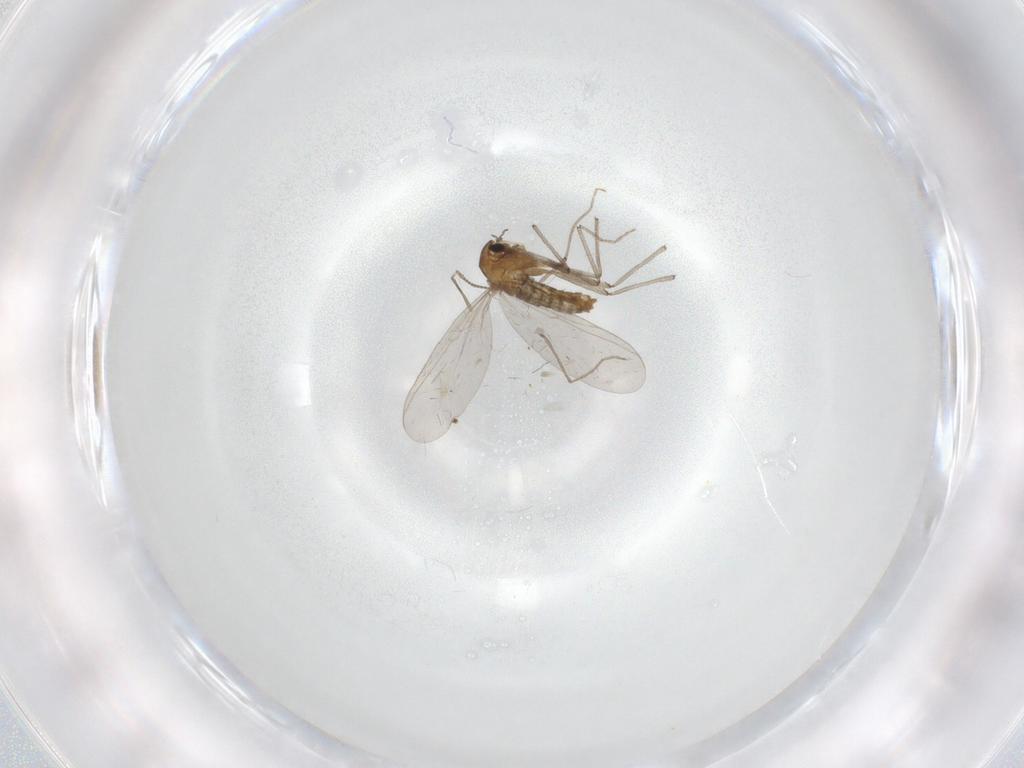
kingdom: Animalia
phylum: Arthropoda
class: Insecta
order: Diptera
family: Chironomidae
